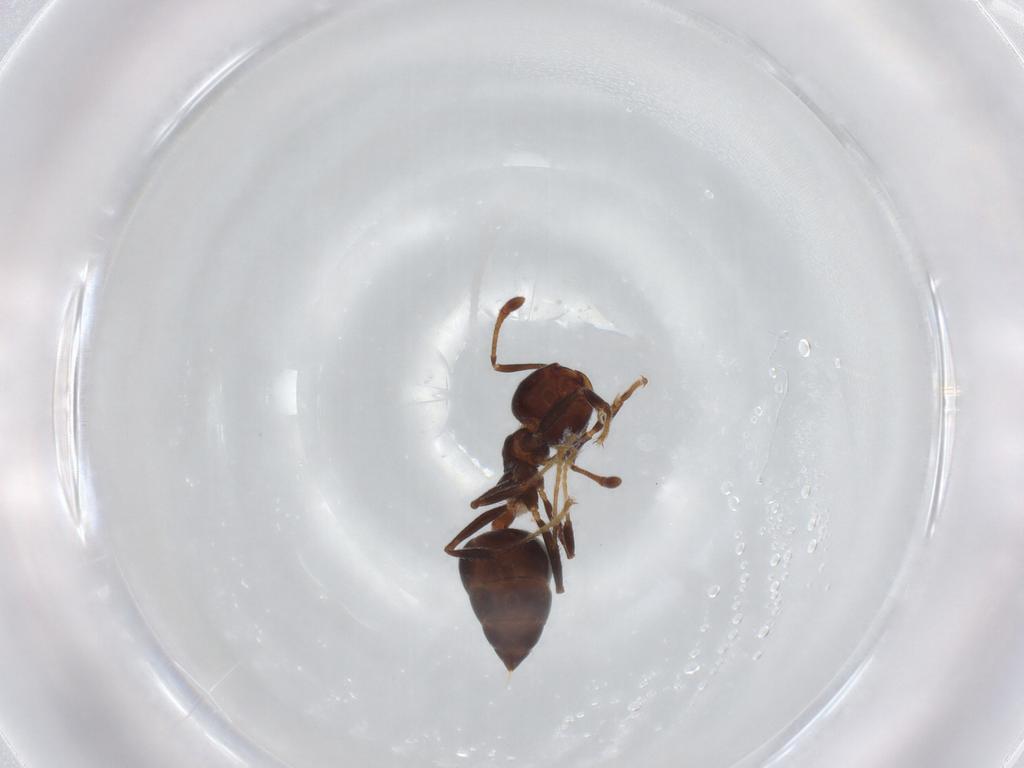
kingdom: Animalia
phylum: Arthropoda
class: Insecta
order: Hymenoptera
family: Formicidae
